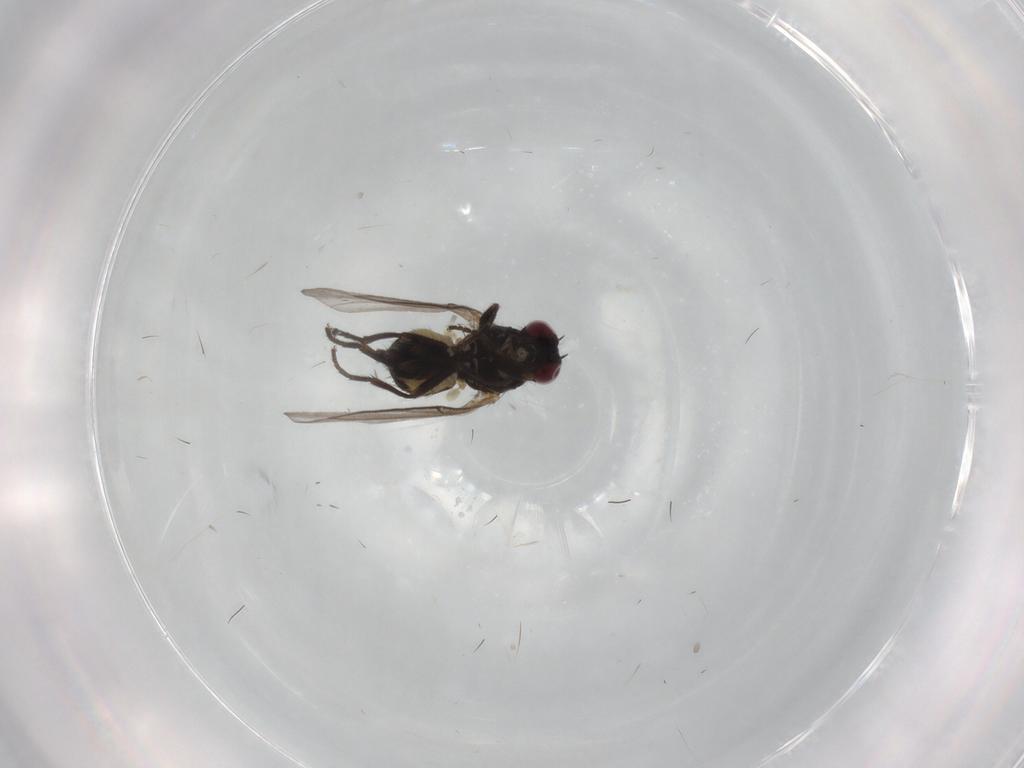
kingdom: Animalia
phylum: Arthropoda
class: Insecta
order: Diptera
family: Agromyzidae
